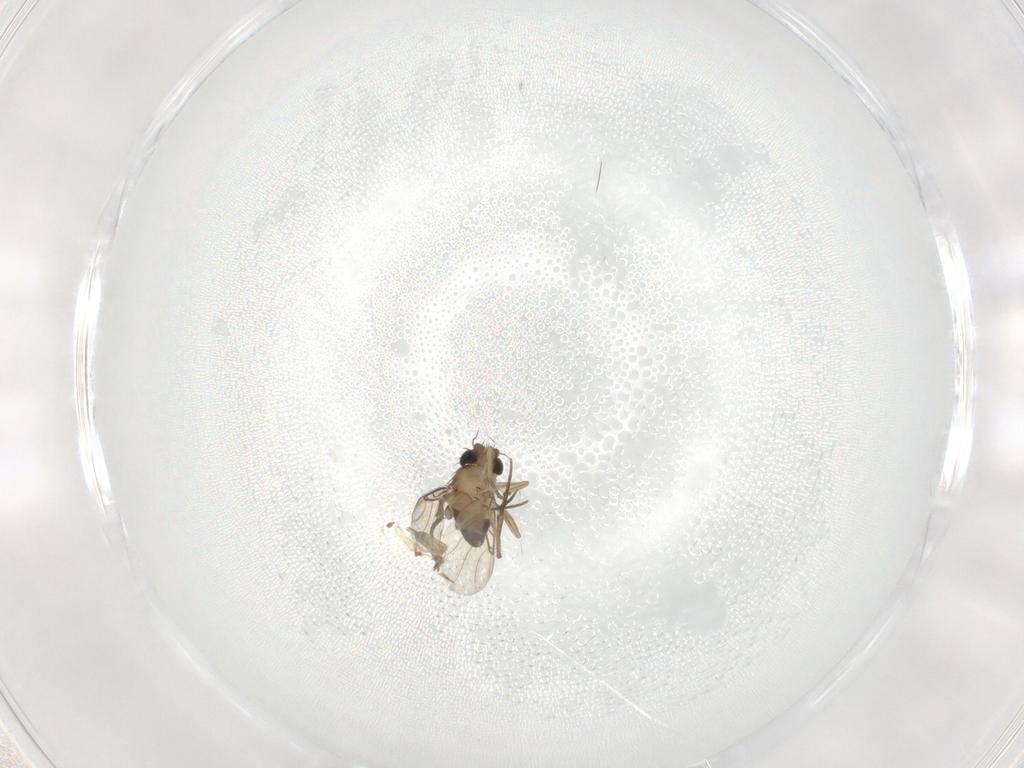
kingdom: Animalia
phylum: Arthropoda
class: Insecta
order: Diptera
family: Phoridae
